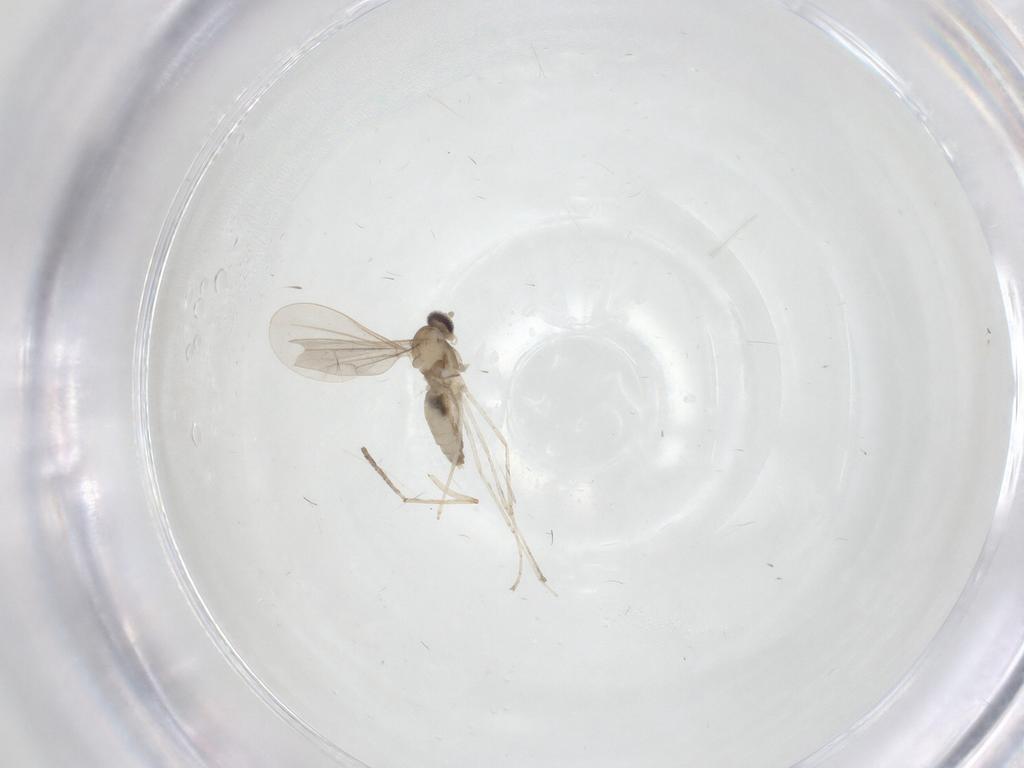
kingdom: Animalia
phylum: Arthropoda
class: Insecta
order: Diptera
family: Cecidomyiidae
